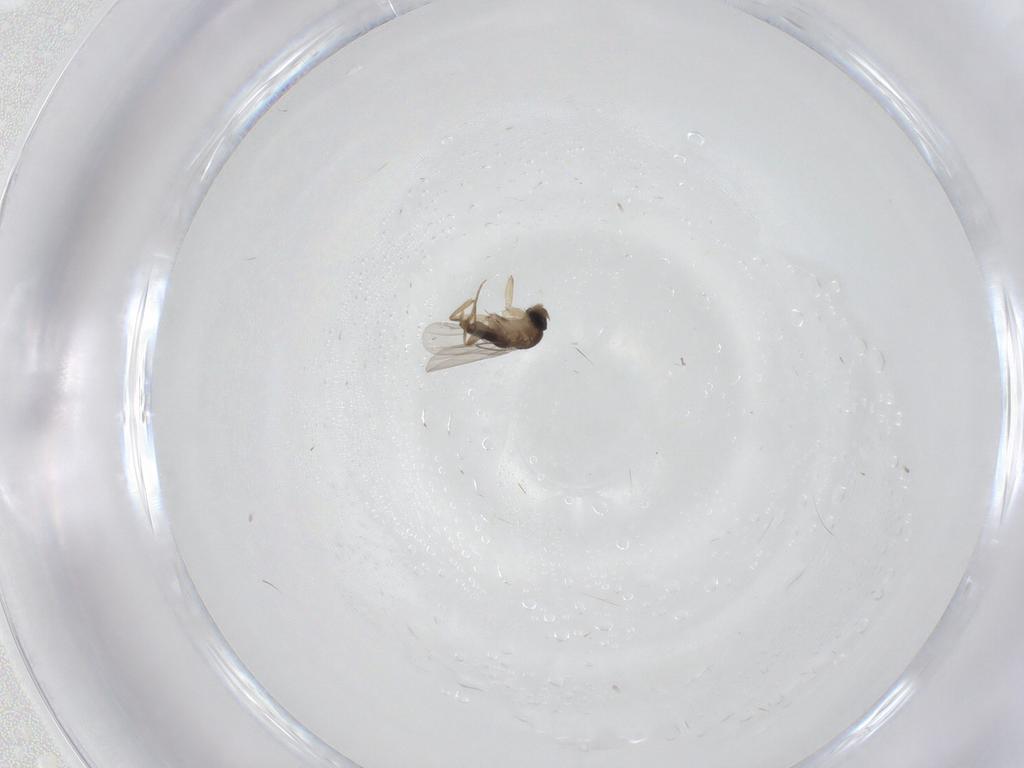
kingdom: Animalia
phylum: Arthropoda
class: Insecta
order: Diptera
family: Phoridae
